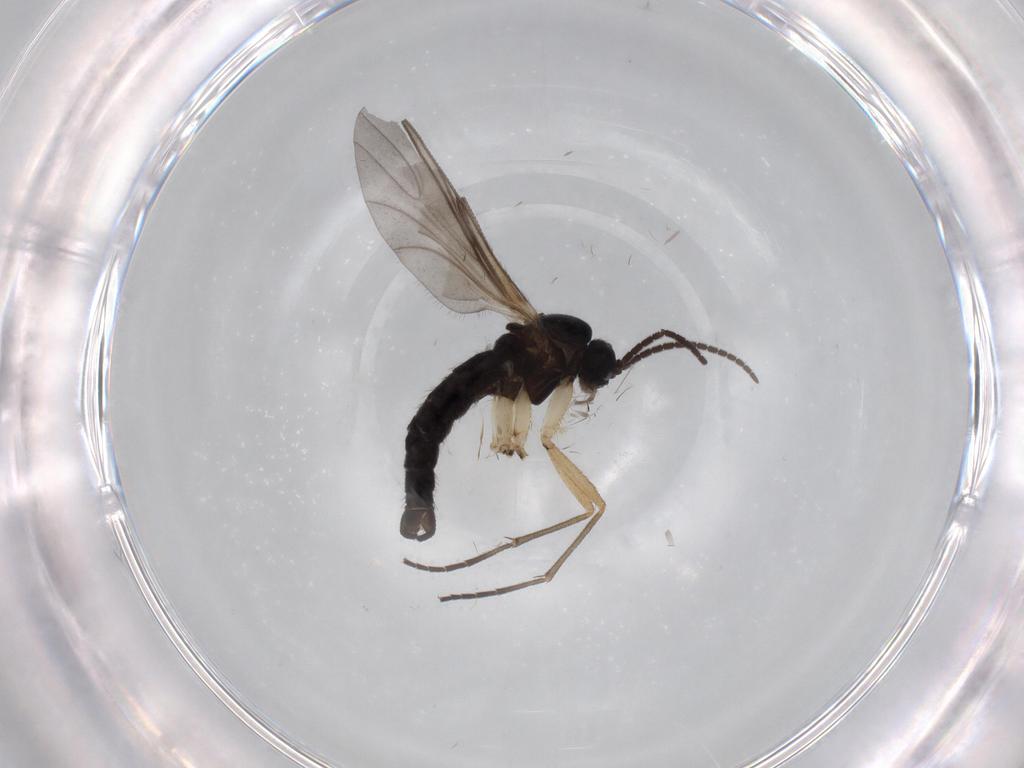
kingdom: Animalia
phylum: Arthropoda
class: Insecta
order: Diptera
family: Sciaridae
